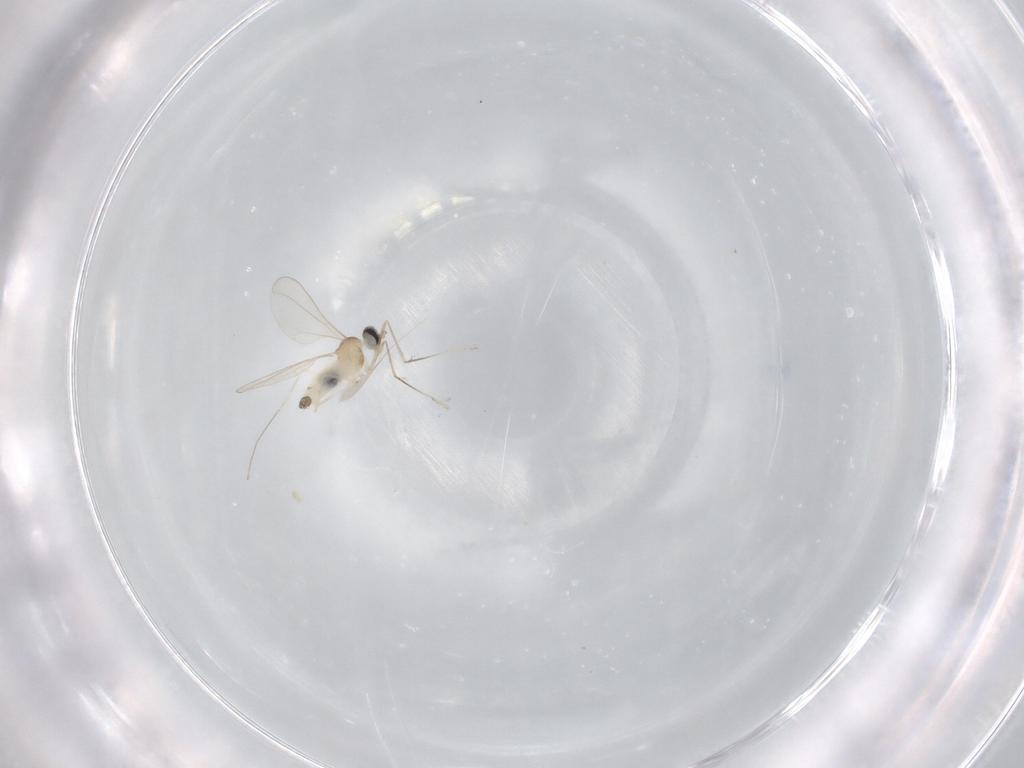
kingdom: Animalia
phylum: Arthropoda
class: Insecta
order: Diptera
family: Cecidomyiidae
